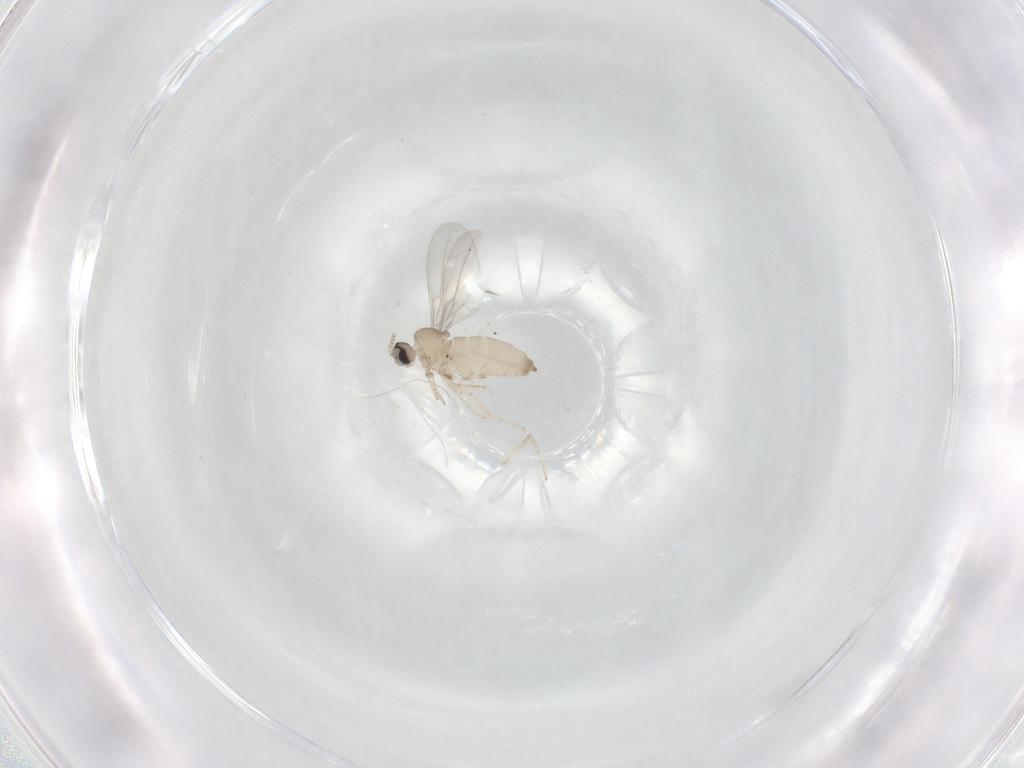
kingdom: Animalia
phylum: Arthropoda
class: Insecta
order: Diptera
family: Cecidomyiidae
